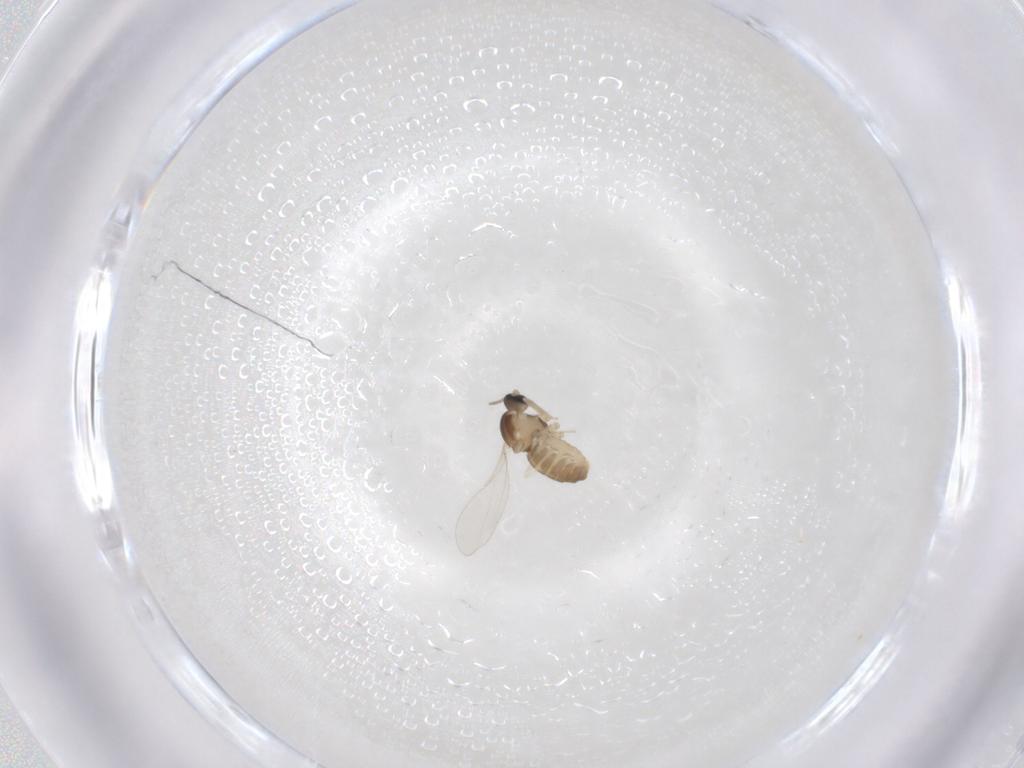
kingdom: Animalia
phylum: Arthropoda
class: Insecta
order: Diptera
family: Cecidomyiidae
